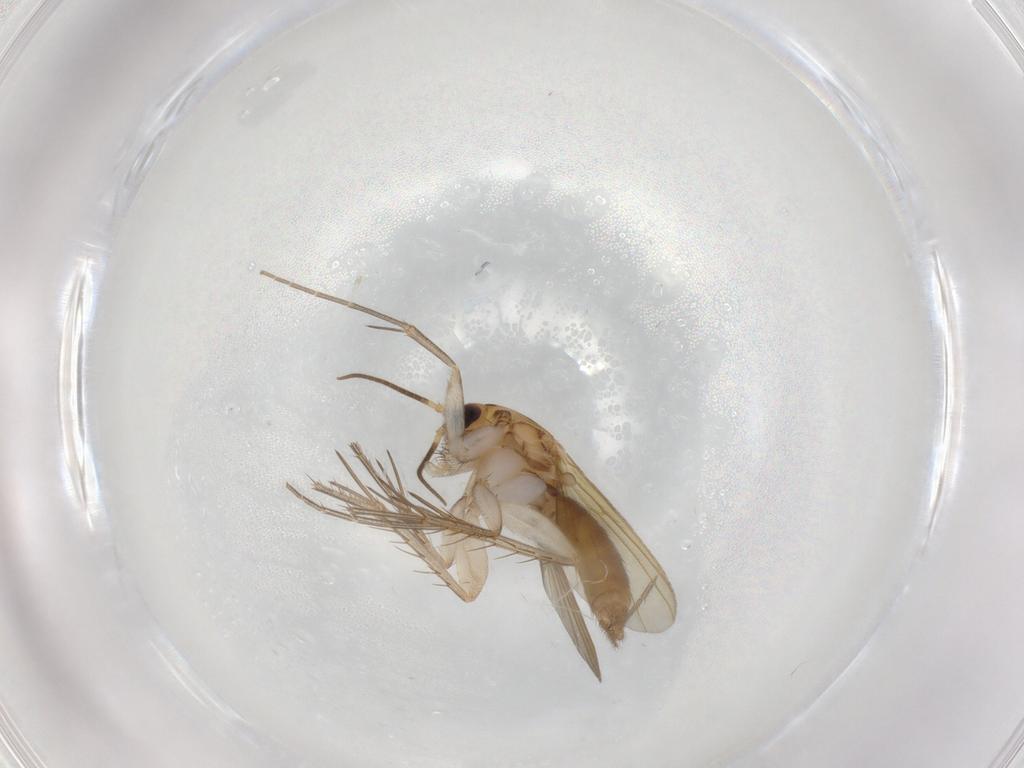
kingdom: Animalia
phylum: Arthropoda
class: Insecta
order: Diptera
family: Cecidomyiidae
